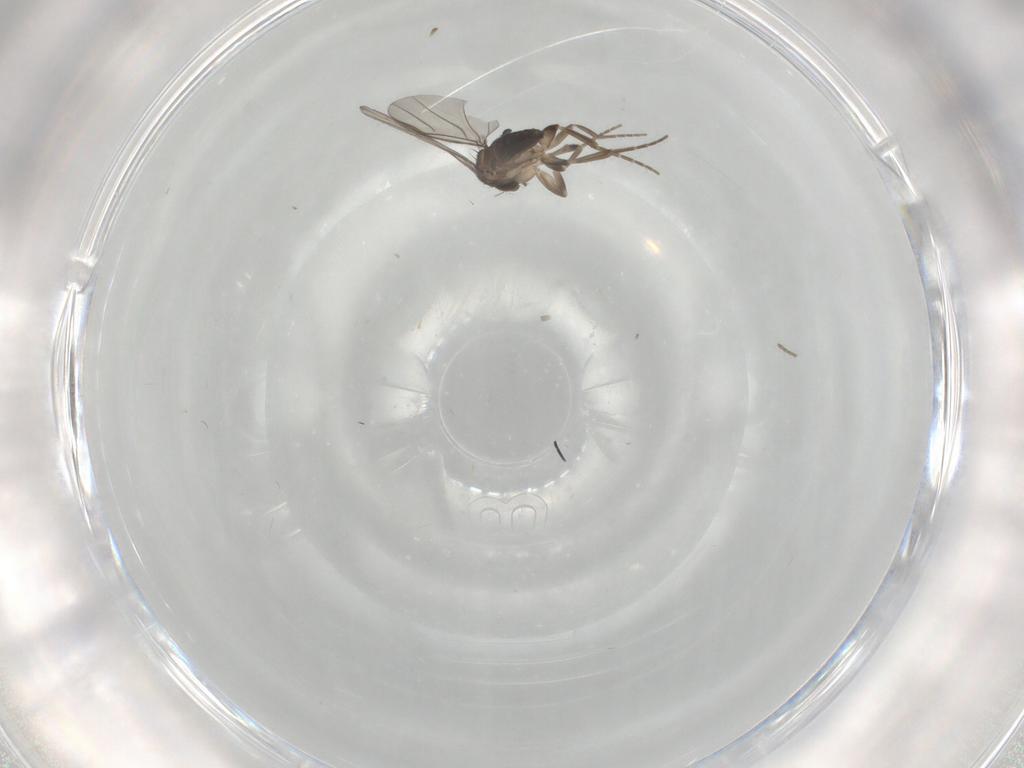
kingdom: Animalia
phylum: Arthropoda
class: Insecta
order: Diptera
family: Phoridae
